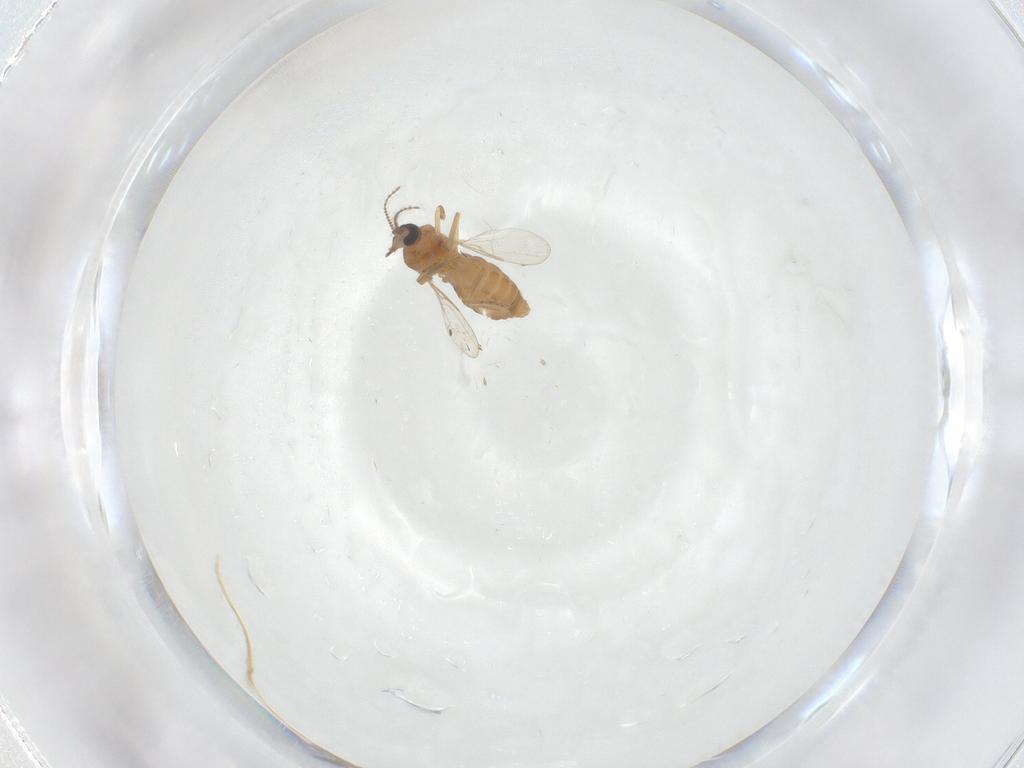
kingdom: Animalia
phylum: Arthropoda
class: Insecta
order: Diptera
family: Ceratopogonidae
